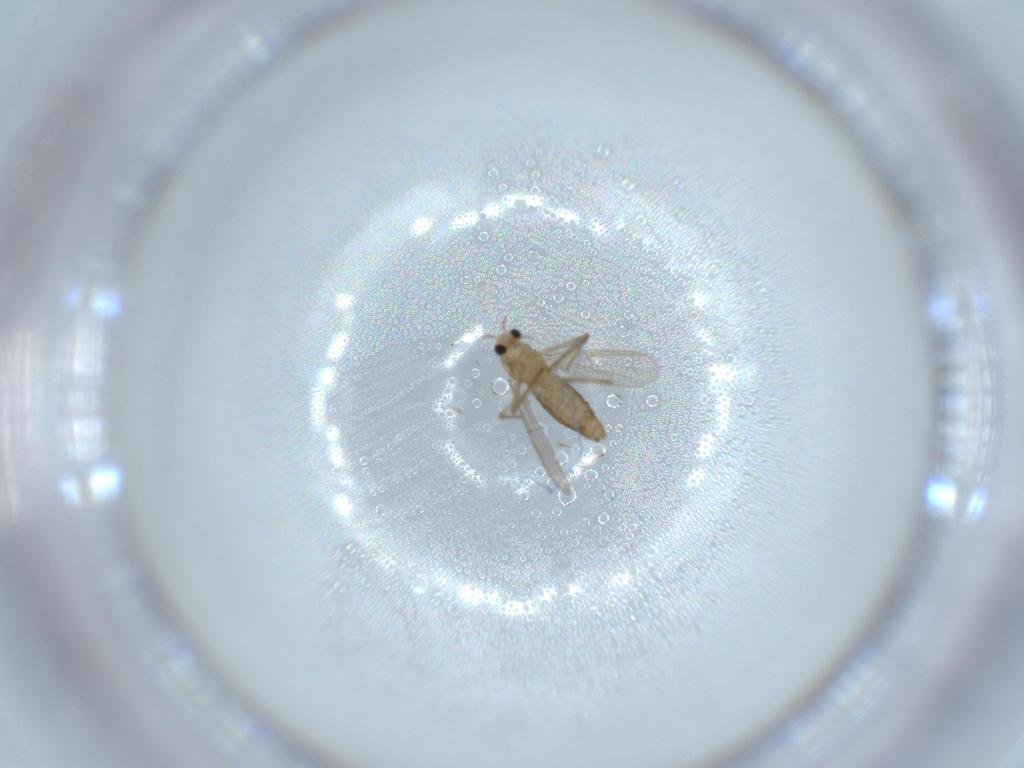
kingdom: Animalia
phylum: Arthropoda
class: Insecta
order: Diptera
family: Chironomidae
